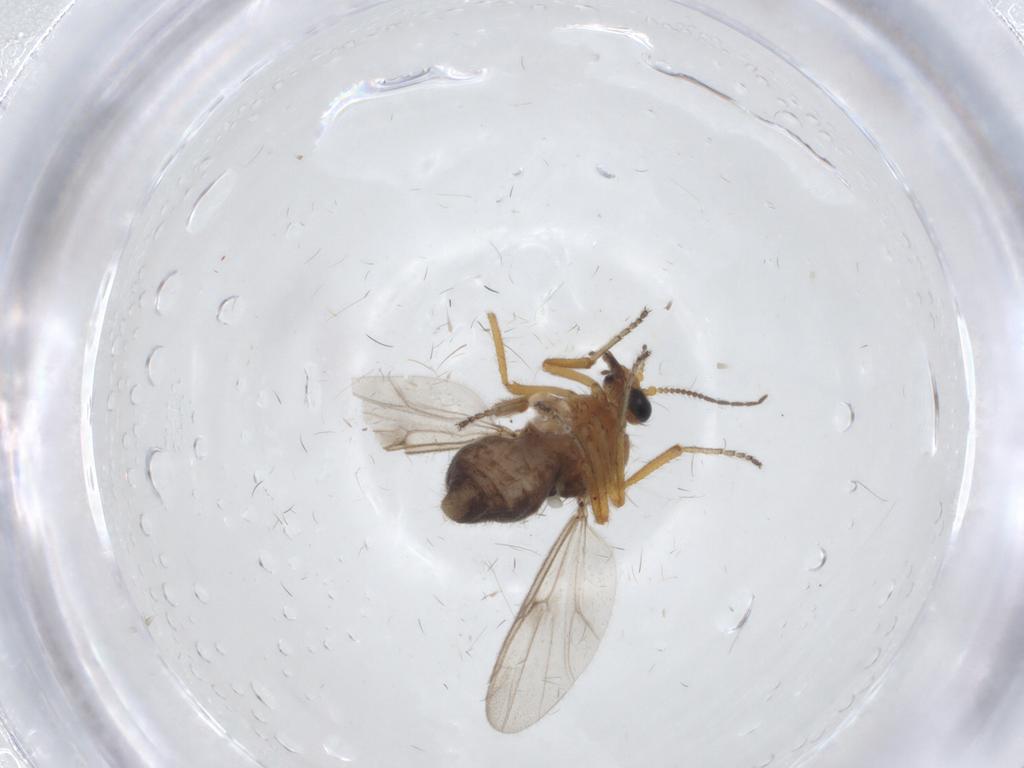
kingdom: Animalia
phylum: Arthropoda
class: Insecta
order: Diptera
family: Ceratopogonidae
